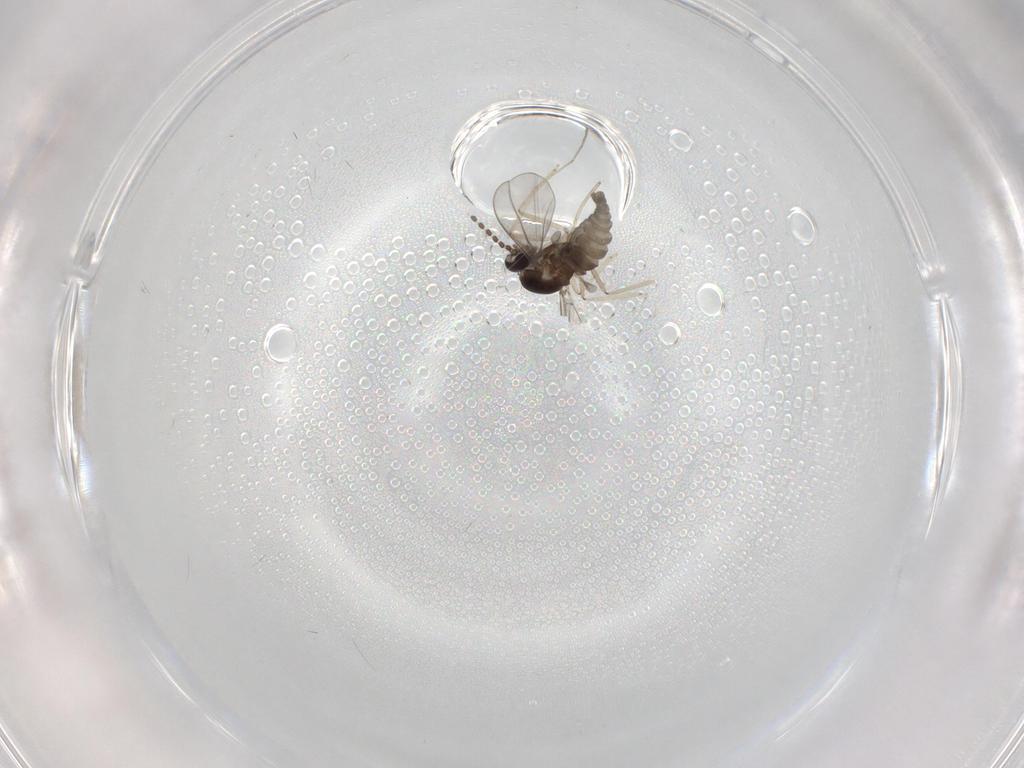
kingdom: Animalia
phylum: Arthropoda
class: Insecta
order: Diptera
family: Cecidomyiidae
